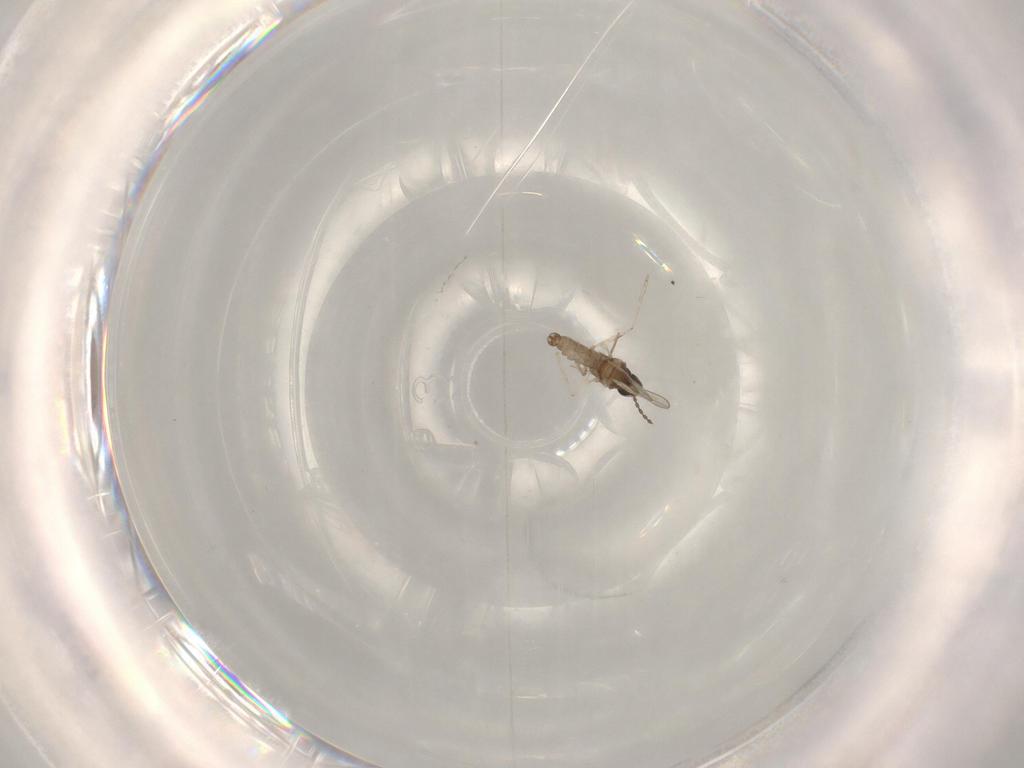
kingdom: Animalia
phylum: Arthropoda
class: Insecta
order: Diptera
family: Cecidomyiidae
